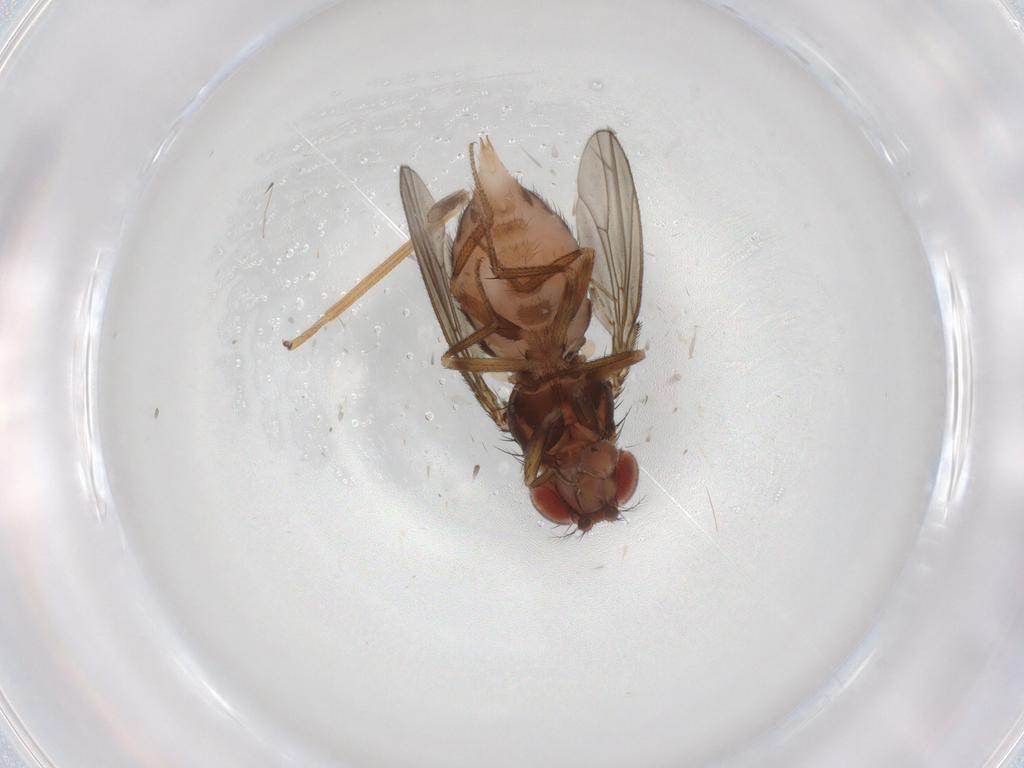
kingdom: Animalia
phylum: Arthropoda
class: Insecta
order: Diptera
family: Drosophilidae
